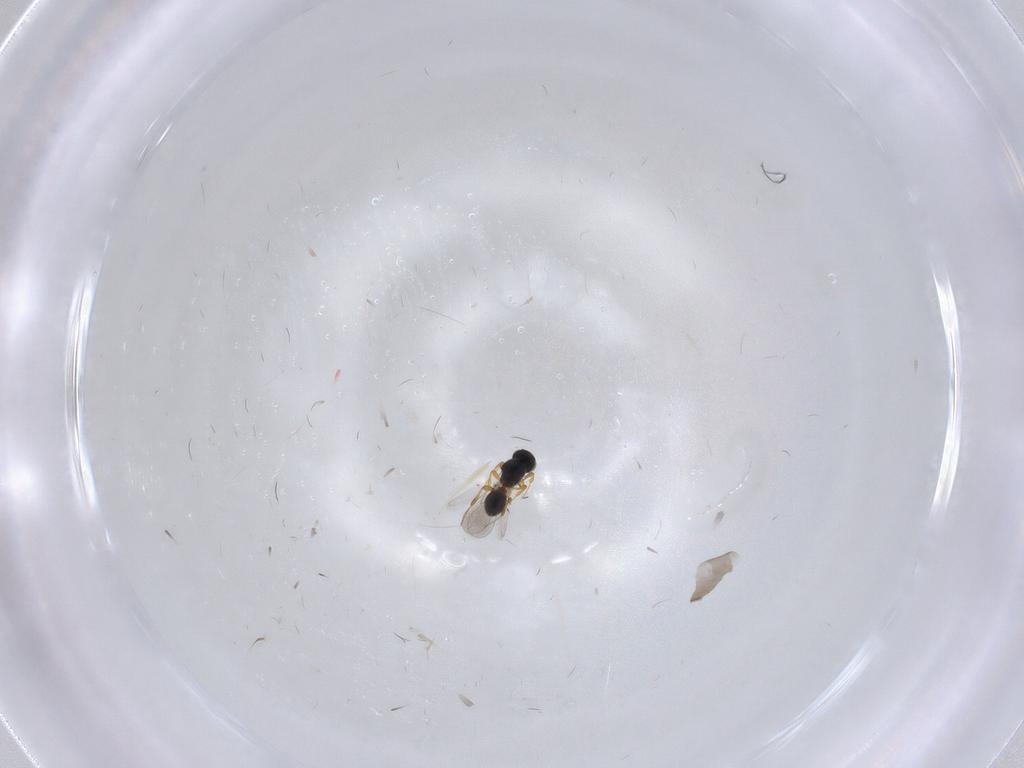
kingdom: Animalia
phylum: Arthropoda
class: Insecta
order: Hymenoptera
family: Platygastridae
